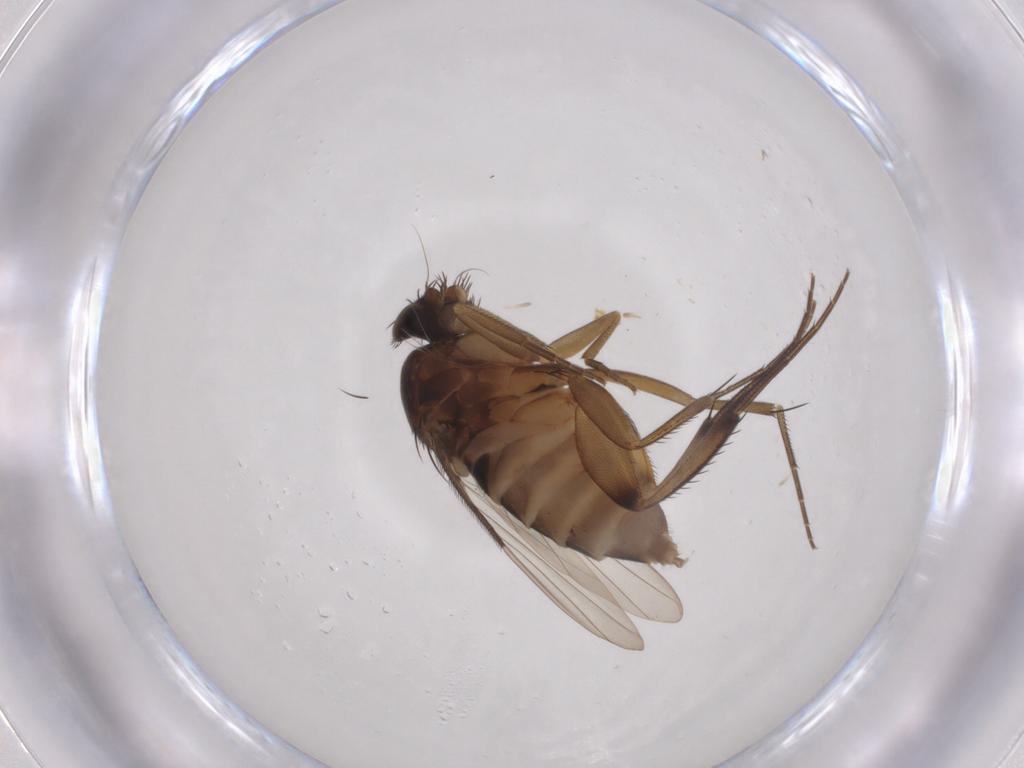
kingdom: Animalia
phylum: Arthropoda
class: Insecta
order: Diptera
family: Phoridae
